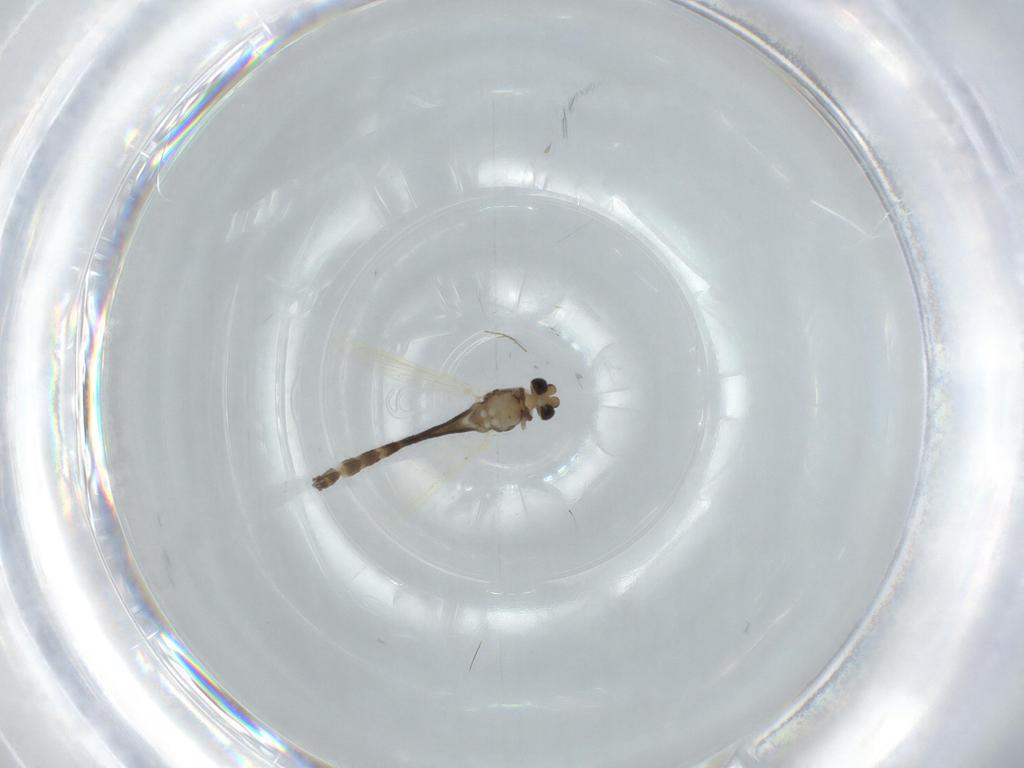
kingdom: Animalia
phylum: Arthropoda
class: Insecta
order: Diptera
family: Chironomidae
